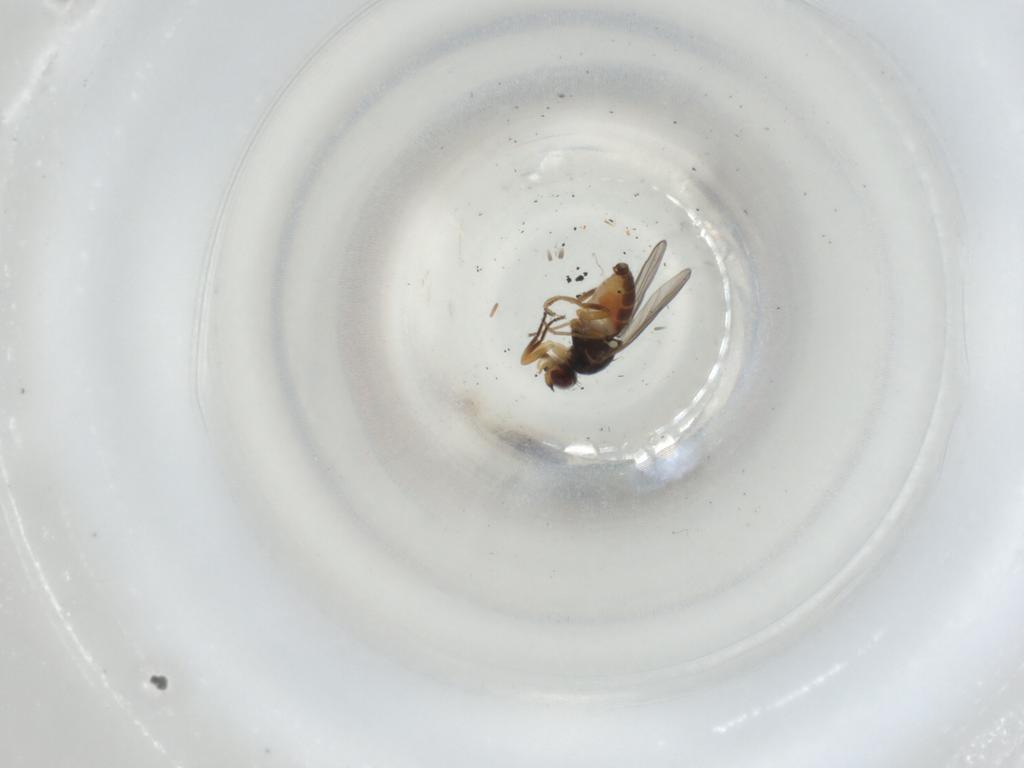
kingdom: Animalia
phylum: Arthropoda
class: Insecta
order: Diptera
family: Chloropidae
